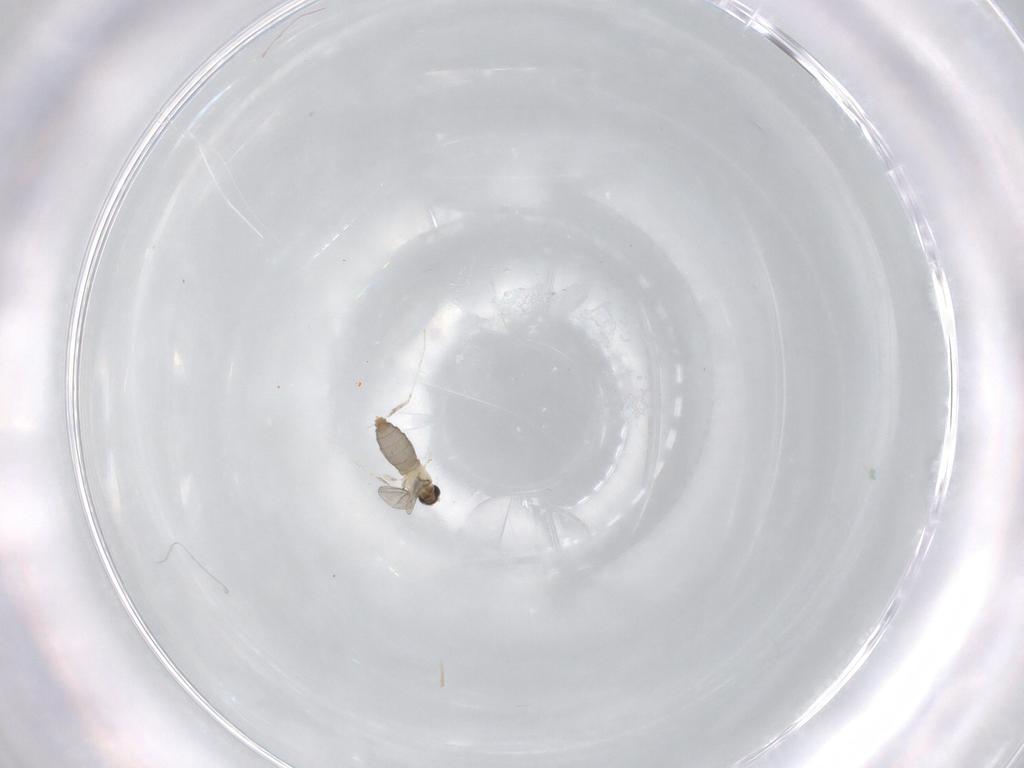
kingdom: Animalia
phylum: Arthropoda
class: Insecta
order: Diptera
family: Cecidomyiidae
